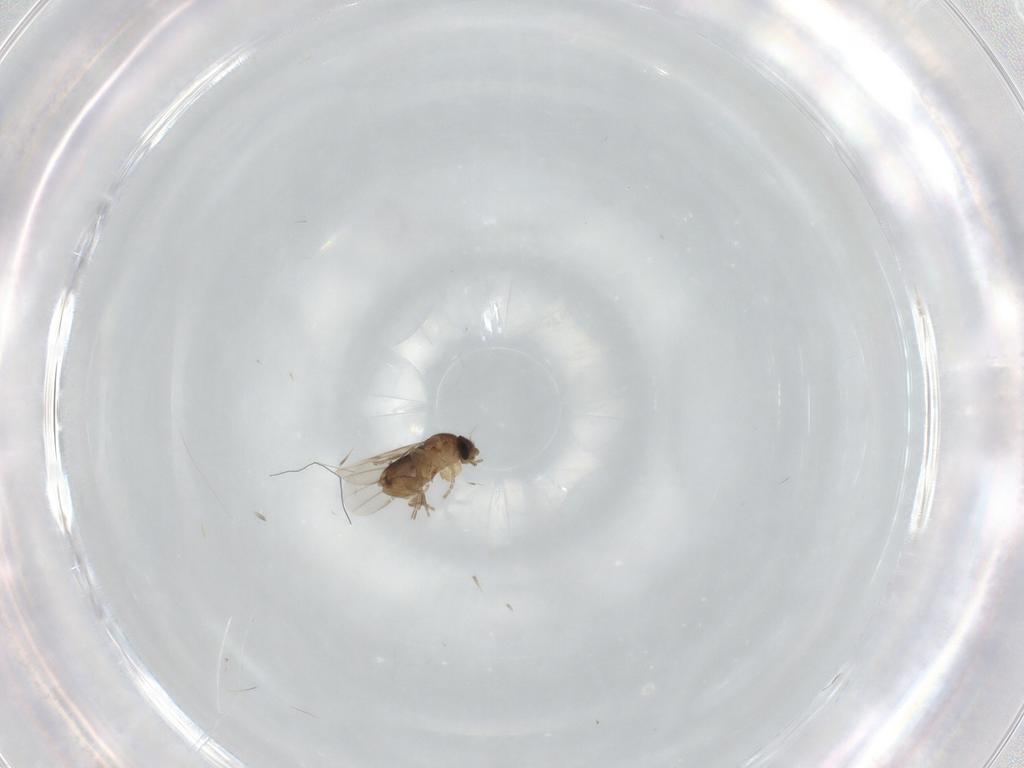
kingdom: Animalia
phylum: Arthropoda
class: Insecta
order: Diptera
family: Phoridae
